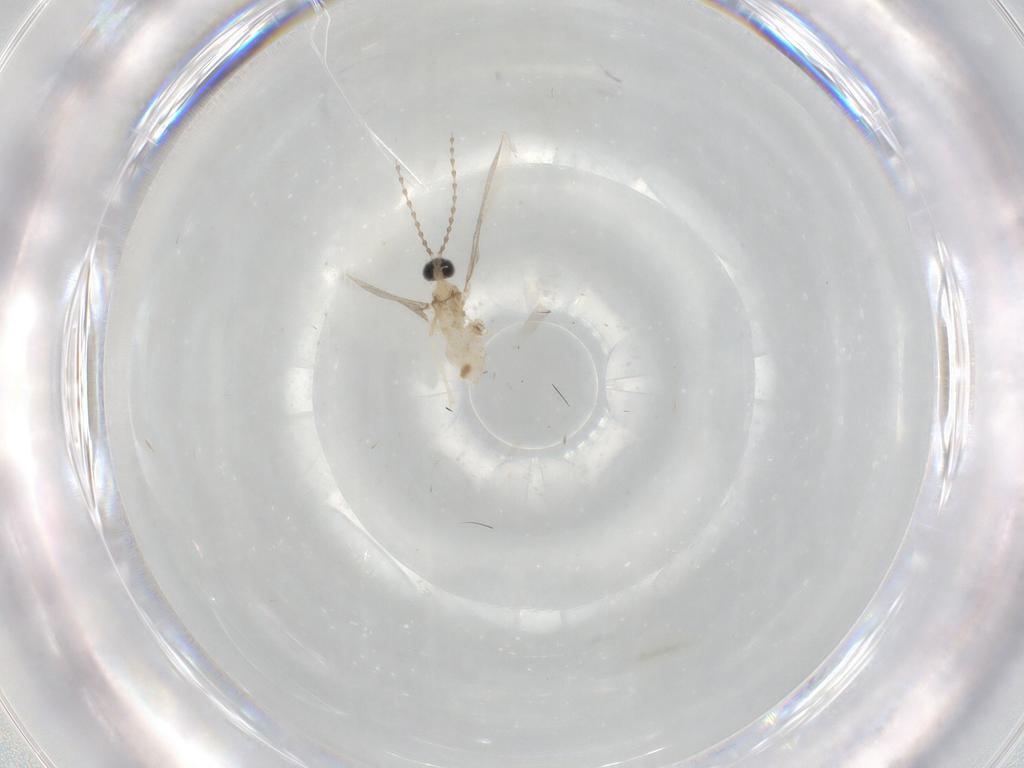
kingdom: Animalia
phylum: Arthropoda
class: Insecta
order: Diptera
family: Cecidomyiidae
